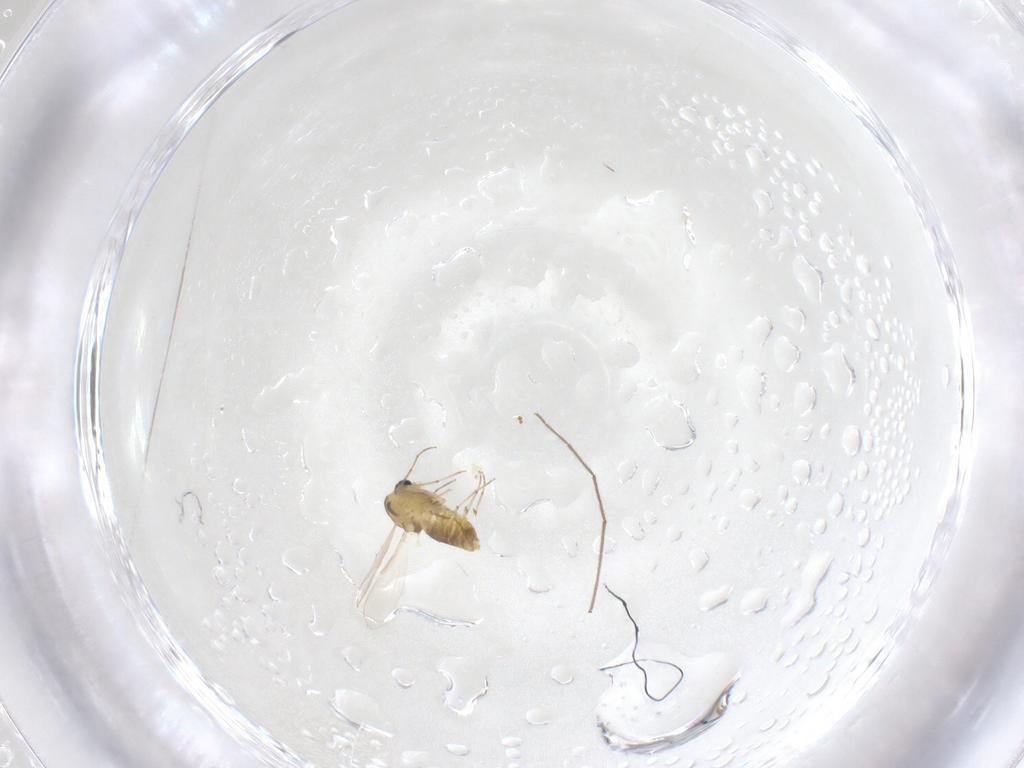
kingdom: Animalia
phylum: Arthropoda
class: Insecta
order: Diptera
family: Chironomidae
